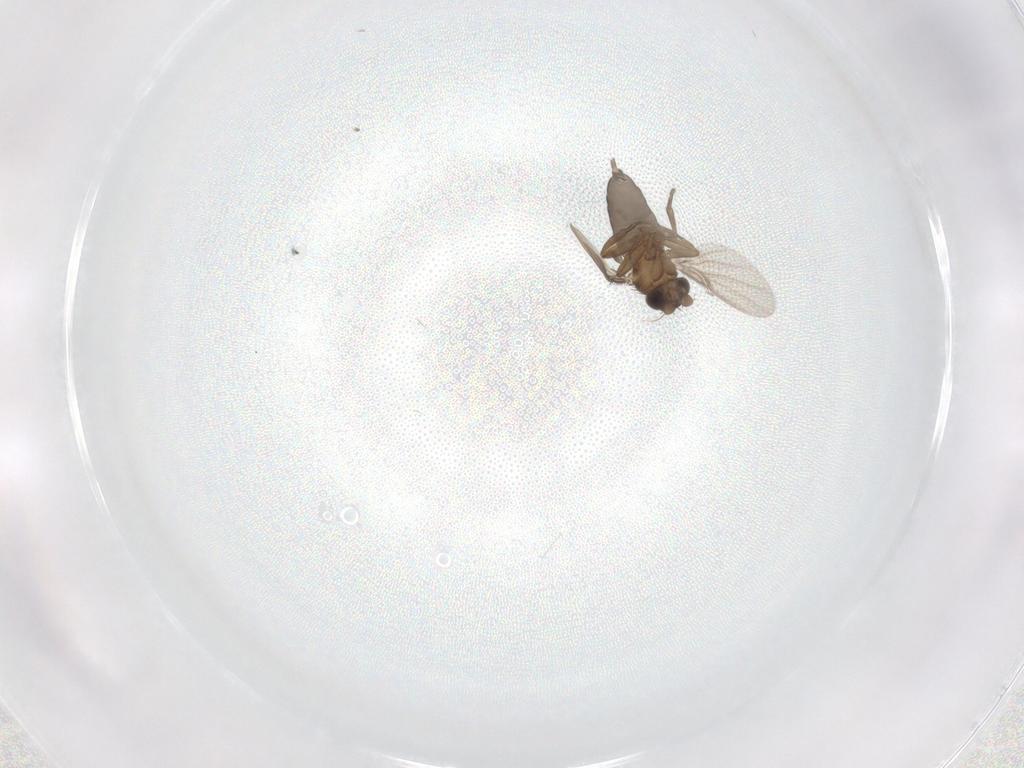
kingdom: Animalia
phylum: Arthropoda
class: Insecta
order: Diptera
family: Phoridae
